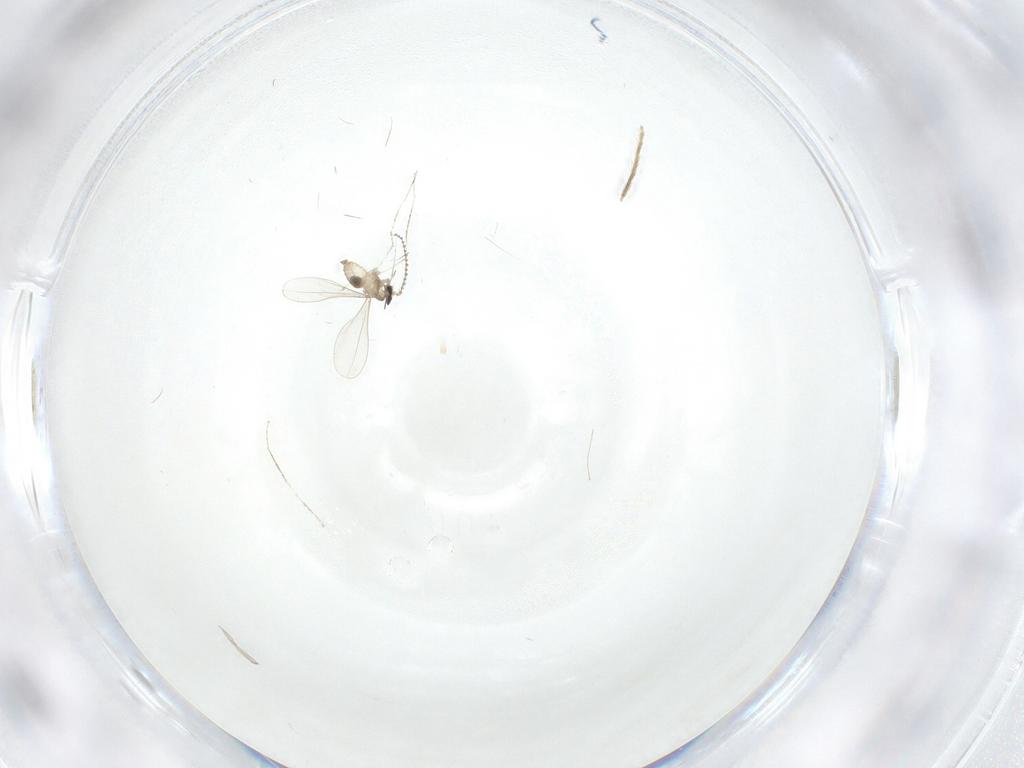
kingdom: Animalia
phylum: Arthropoda
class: Insecta
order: Diptera
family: Cecidomyiidae
